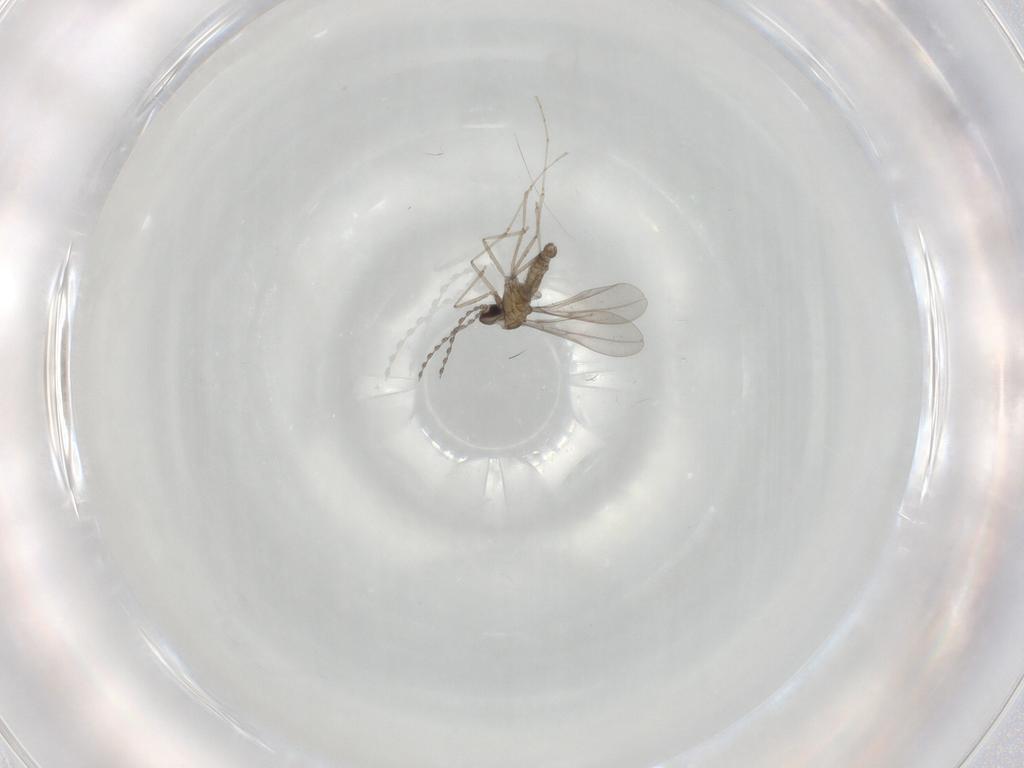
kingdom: Animalia
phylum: Arthropoda
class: Insecta
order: Diptera
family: Cecidomyiidae
